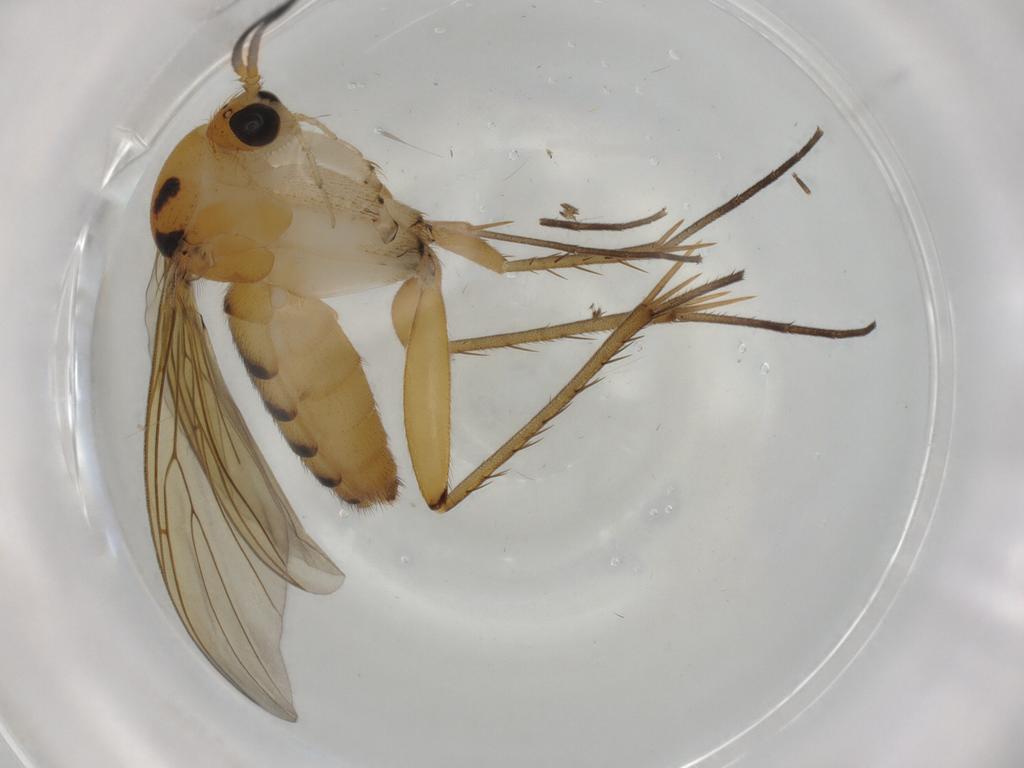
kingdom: Animalia
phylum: Arthropoda
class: Insecta
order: Diptera
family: Mycetophilidae
